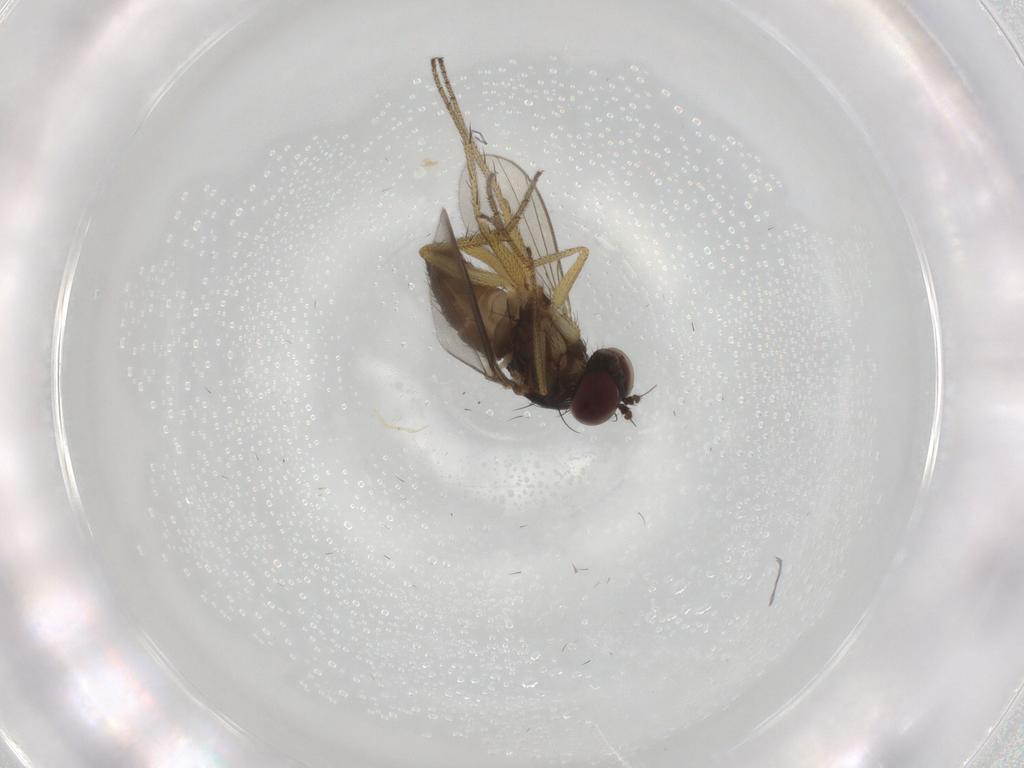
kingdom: Animalia
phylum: Arthropoda
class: Insecta
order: Diptera
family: Dolichopodidae
